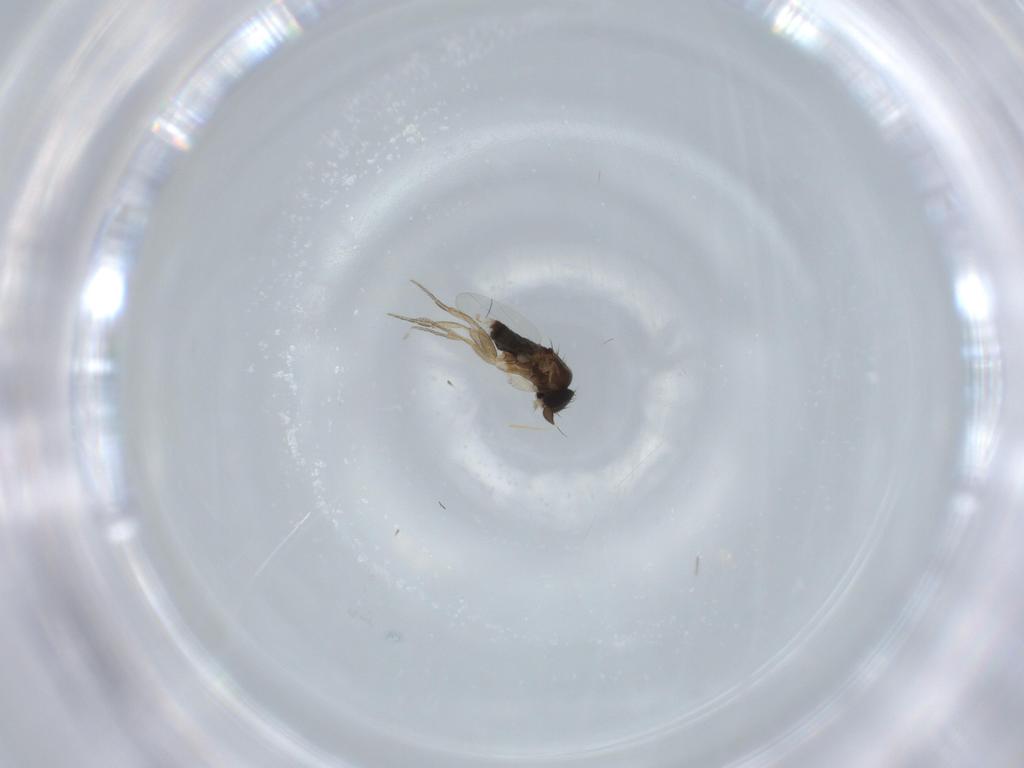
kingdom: Animalia
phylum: Arthropoda
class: Insecta
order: Diptera
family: Phoridae
